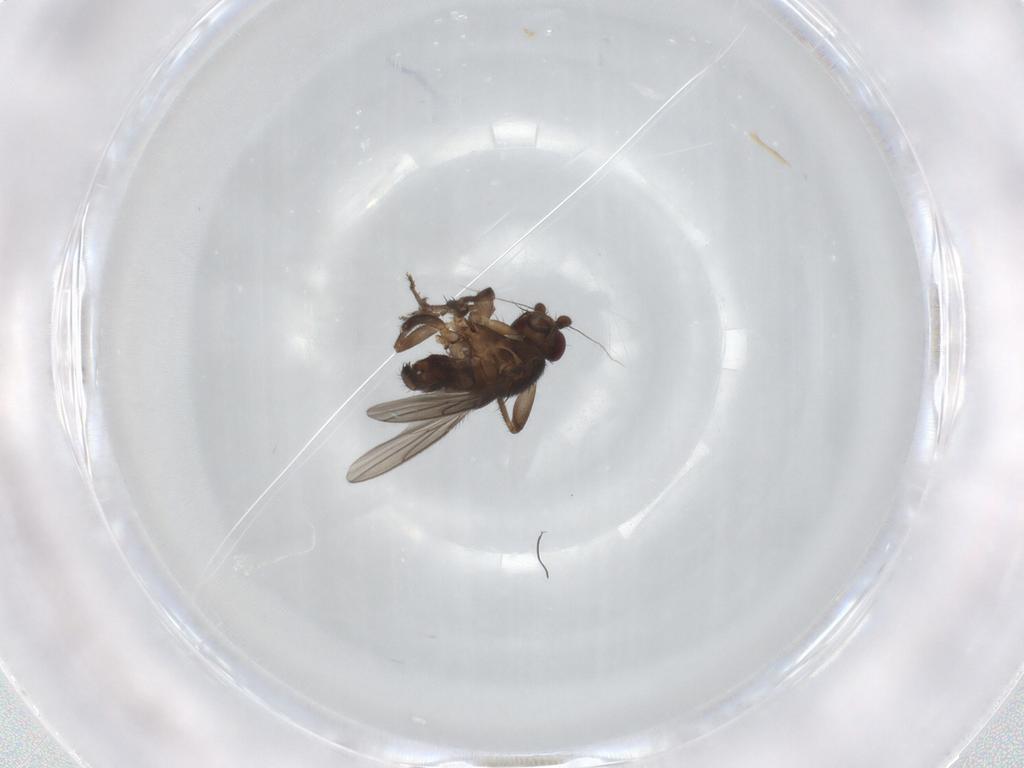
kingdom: Animalia
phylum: Arthropoda
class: Insecta
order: Diptera
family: Sphaeroceridae
